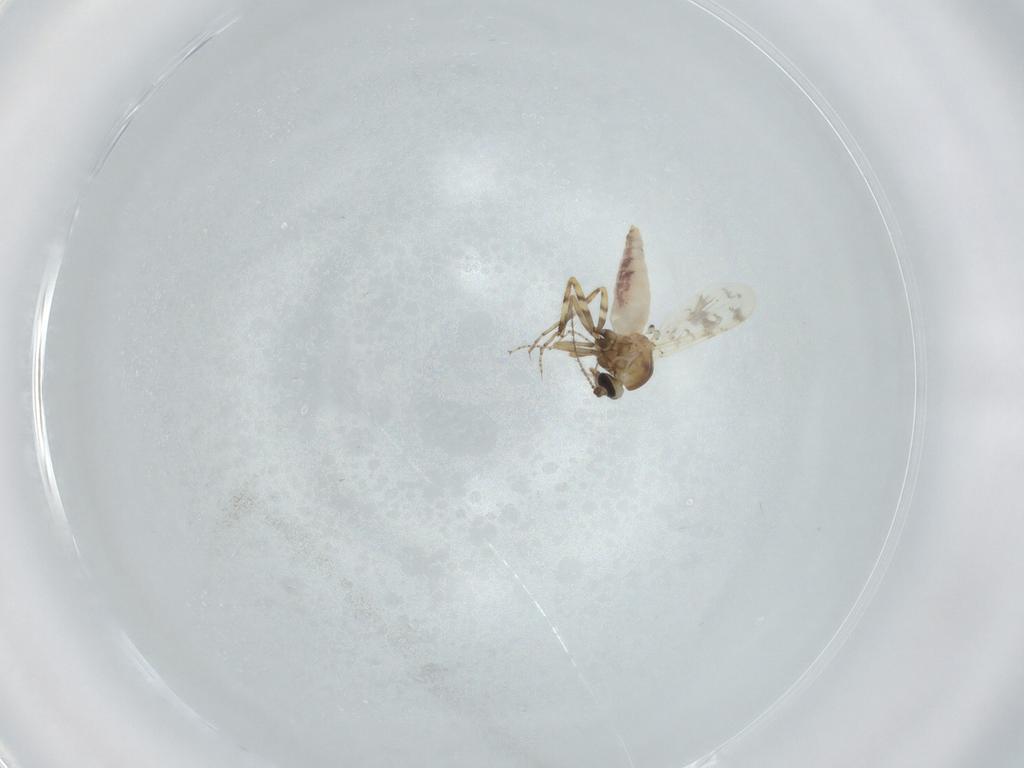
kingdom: Animalia
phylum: Arthropoda
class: Insecta
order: Diptera
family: Ceratopogonidae
